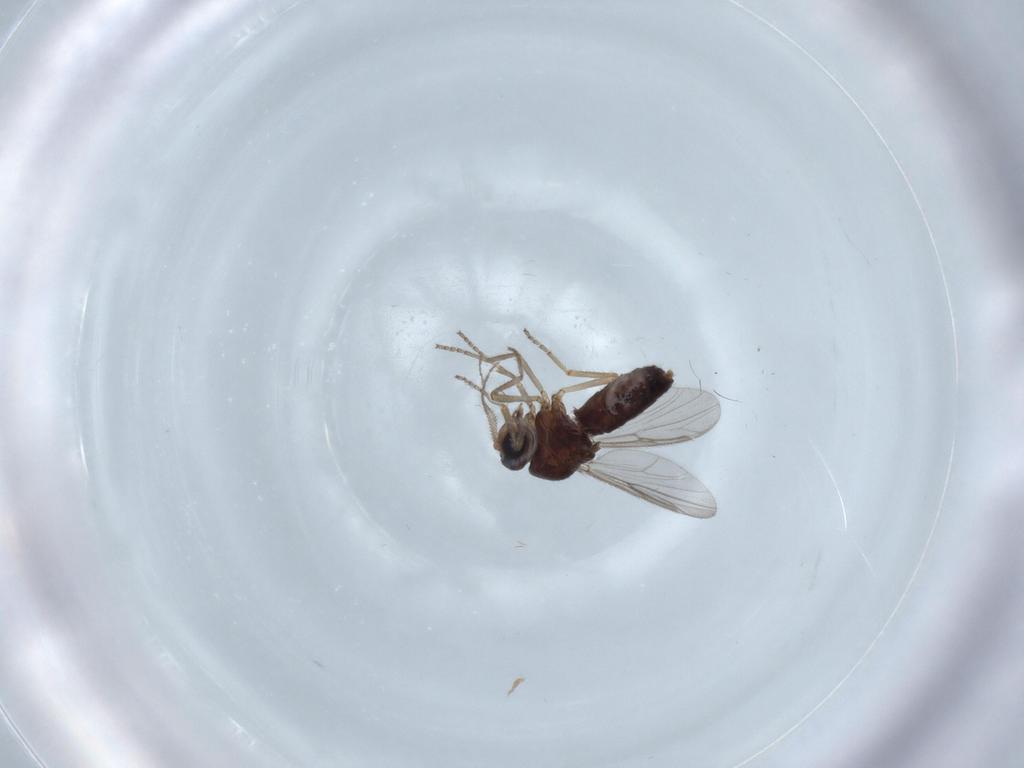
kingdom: Animalia
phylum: Arthropoda
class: Insecta
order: Diptera
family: Ceratopogonidae
